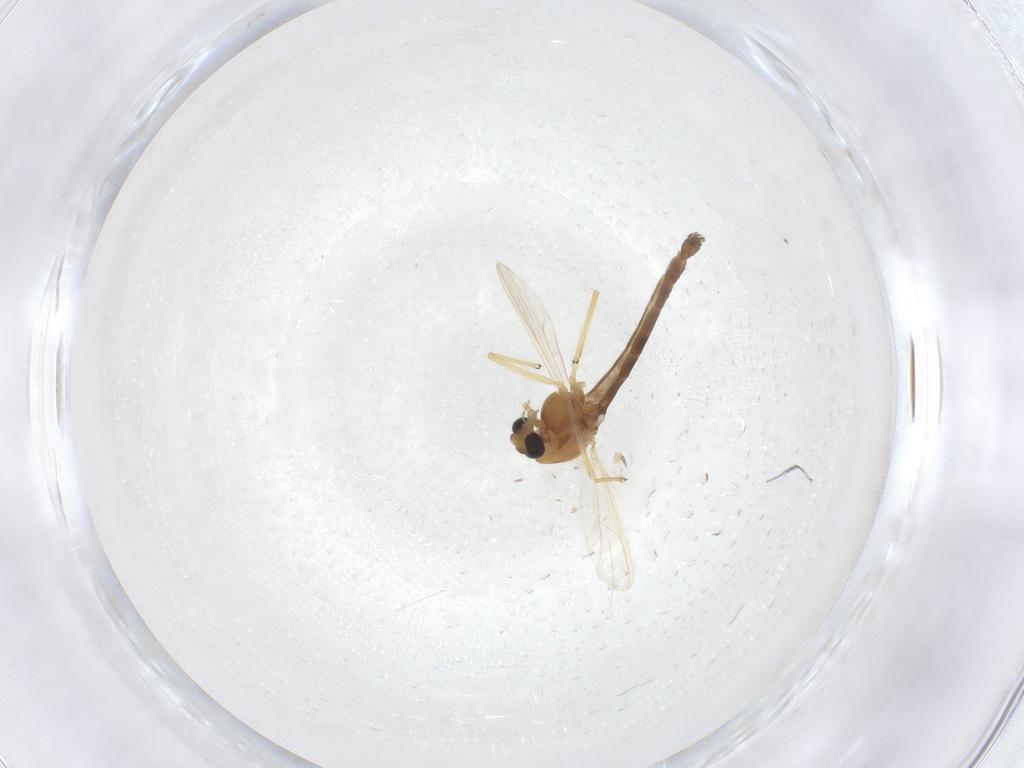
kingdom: Animalia
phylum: Arthropoda
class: Insecta
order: Diptera
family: Chironomidae
